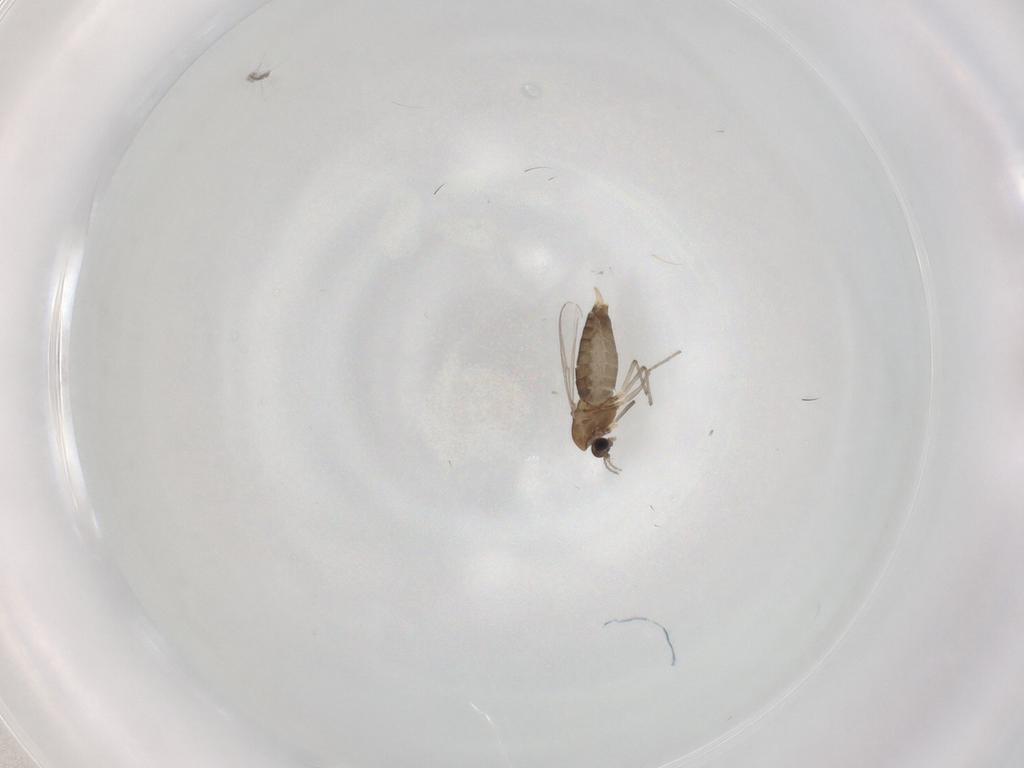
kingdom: Animalia
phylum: Arthropoda
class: Insecta
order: Diptera
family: Chironomidae
